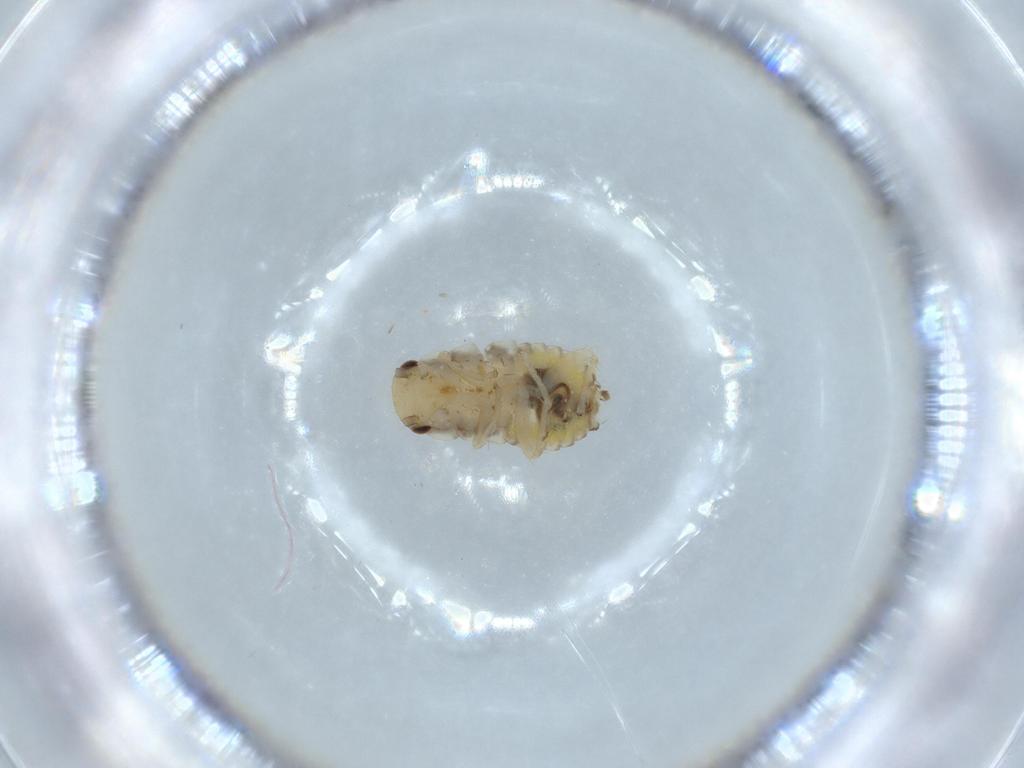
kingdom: Animalia
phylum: Arthropoda
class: Insecta
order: Blattodea
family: Ectobiidae
